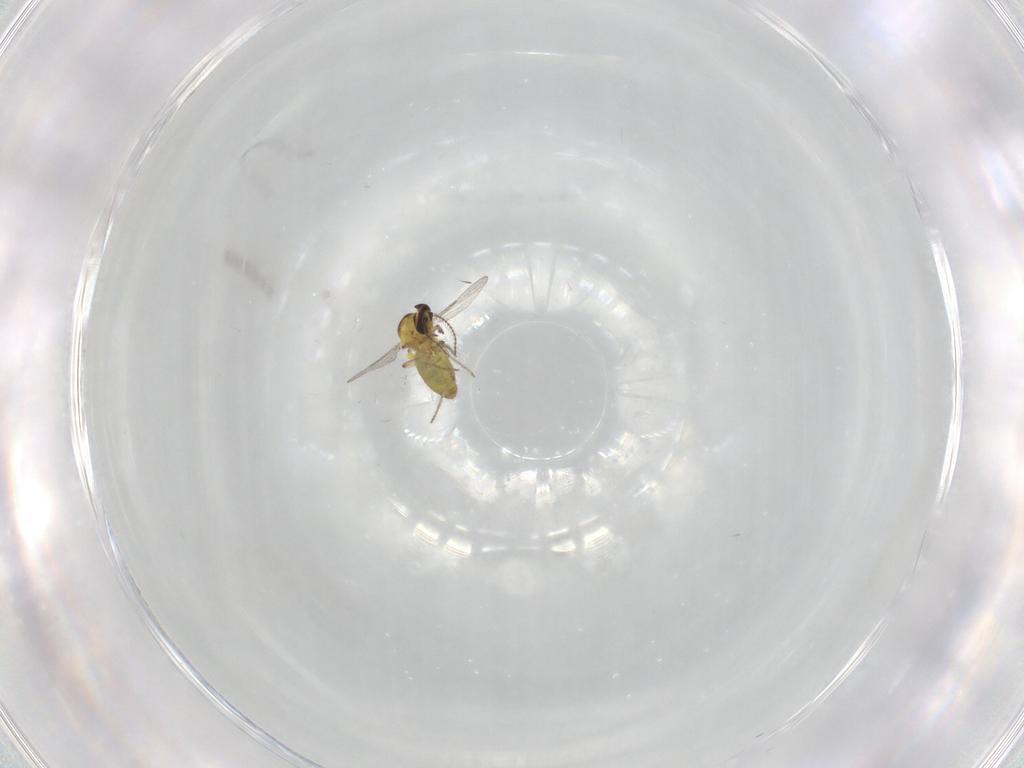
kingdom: Animalia
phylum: Arthropoda
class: Insecta
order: Diptera
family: Ceratopogonidae
